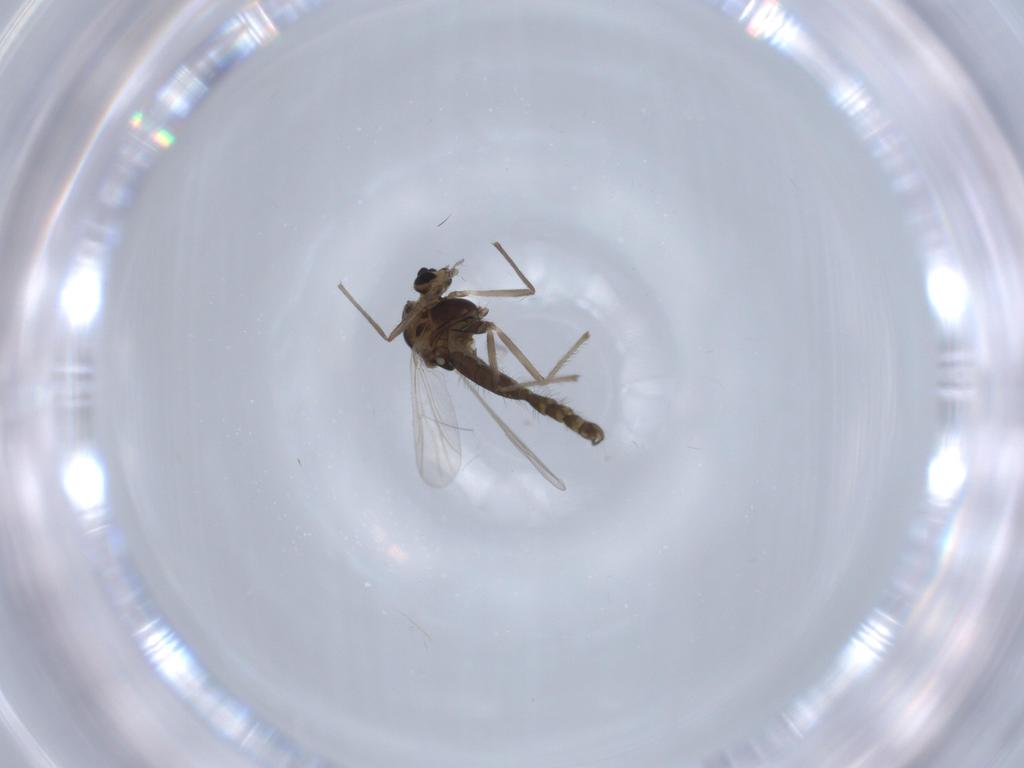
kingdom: Animalia
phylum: Arthropoda
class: Insecta
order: Diptera
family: Chironomidae
